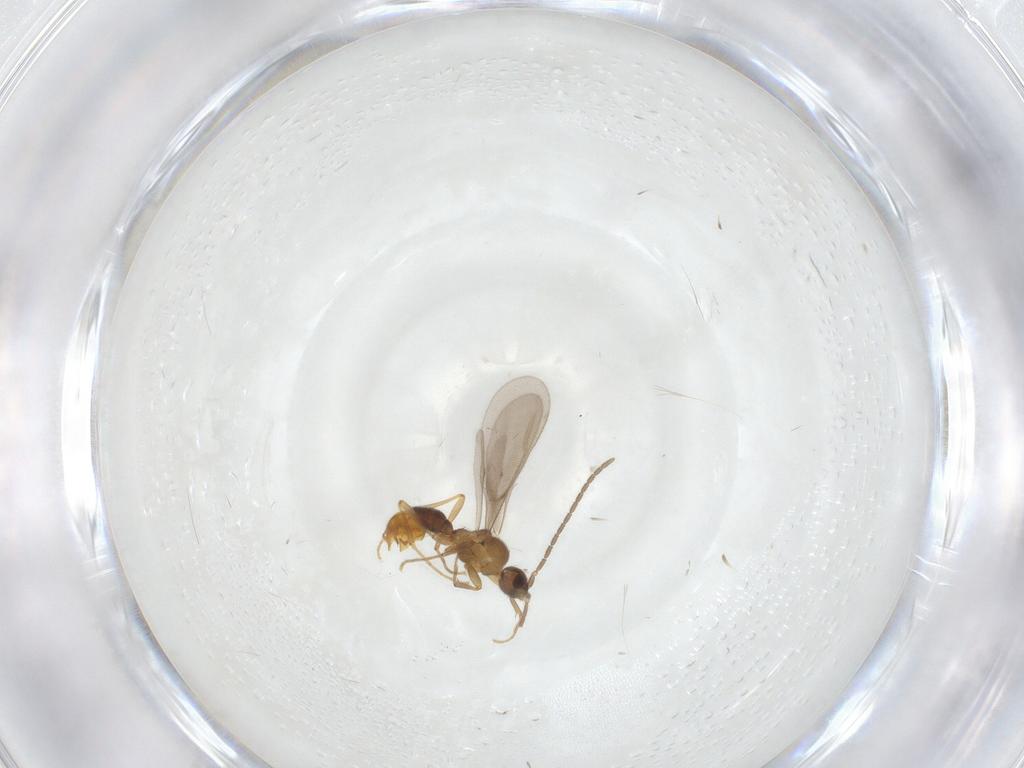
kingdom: Animalia
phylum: Arthropoda
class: Insecta
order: Hymenoptera
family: Formicidae
